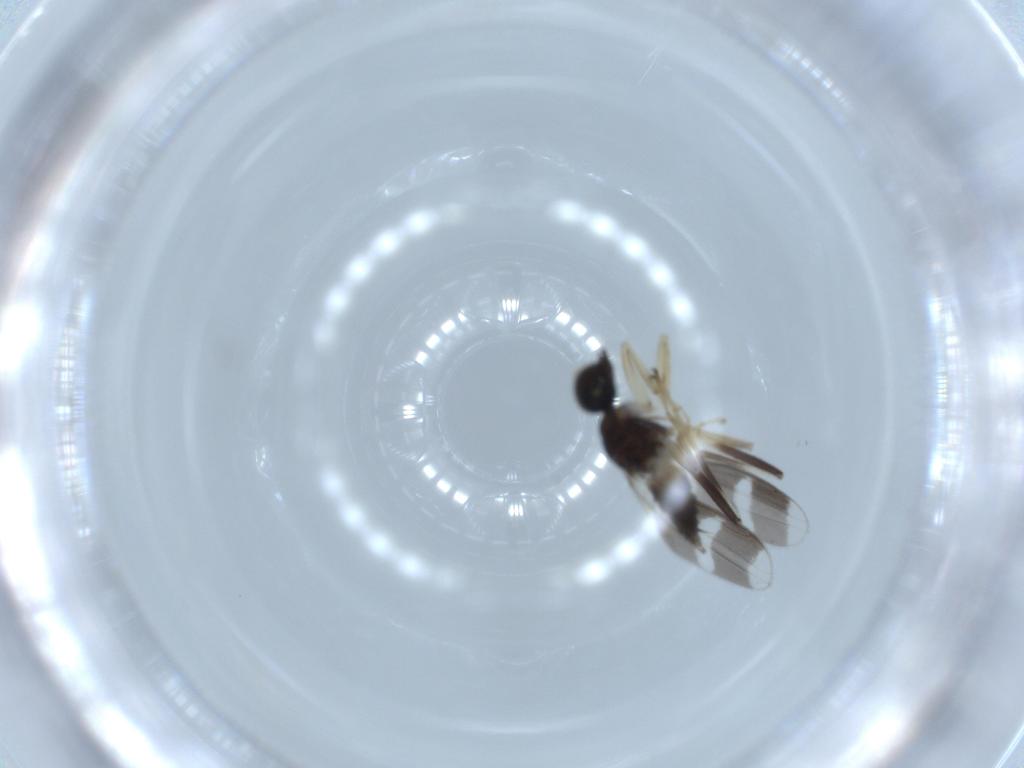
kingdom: Animalia
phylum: Arthropoda
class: Insecta
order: Diptera
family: Hybotidae
